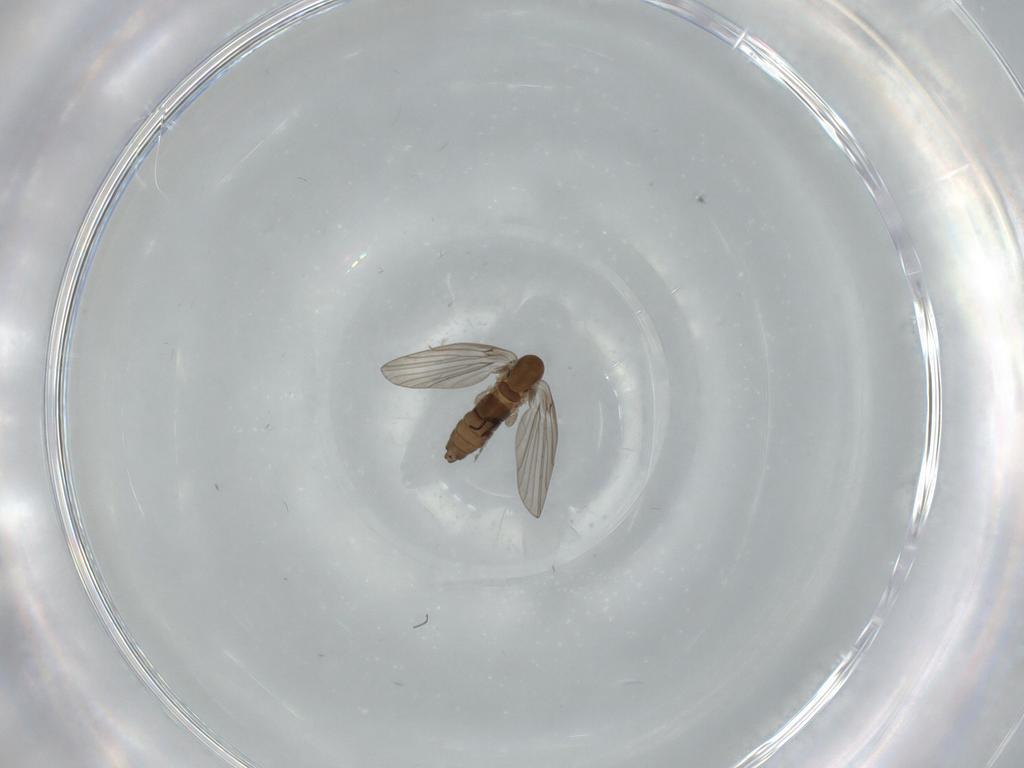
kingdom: Animalia
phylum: Arthropoda
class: Insecta
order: Diptera
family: Psychodidae
